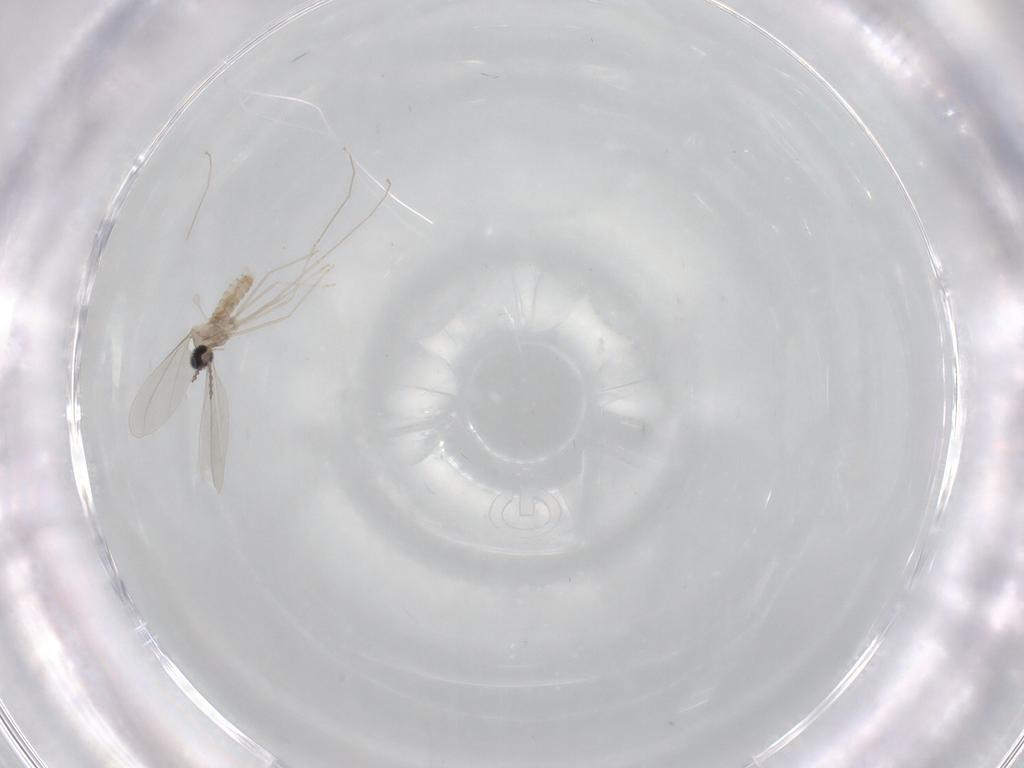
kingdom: Animalia
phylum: Arthropoda
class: Insecta
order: Diptera
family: Cecidomyiidae
